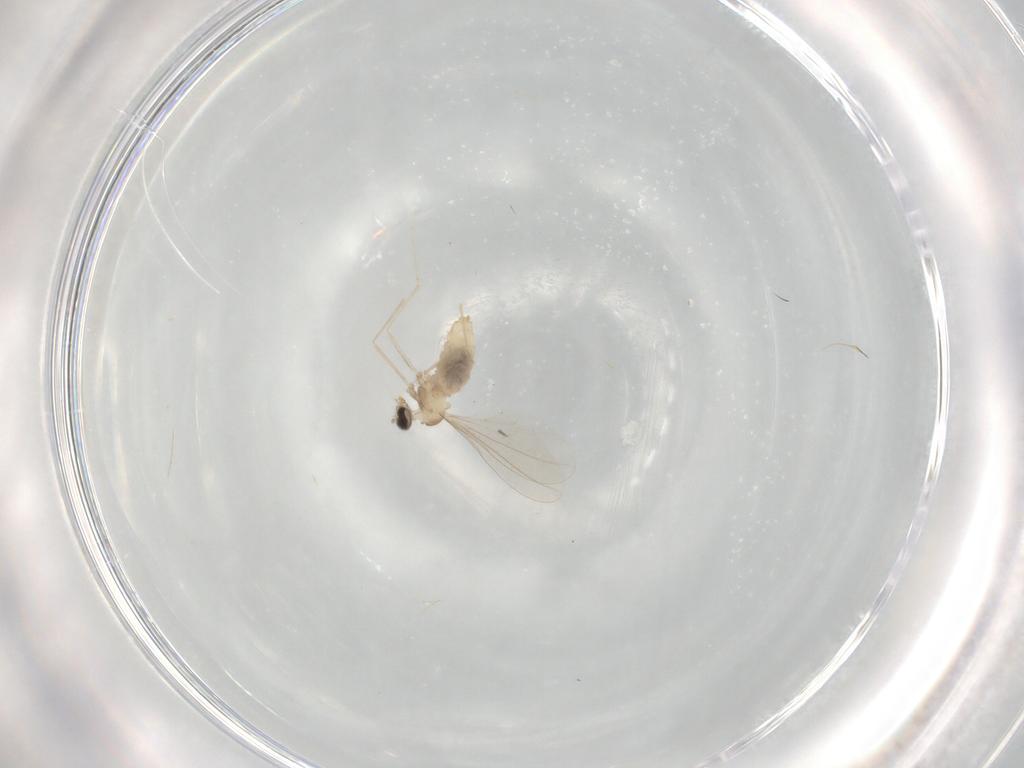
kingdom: Animalia
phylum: Arthropoda
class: Insecta
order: Diptera
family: Cecidomyiidae
